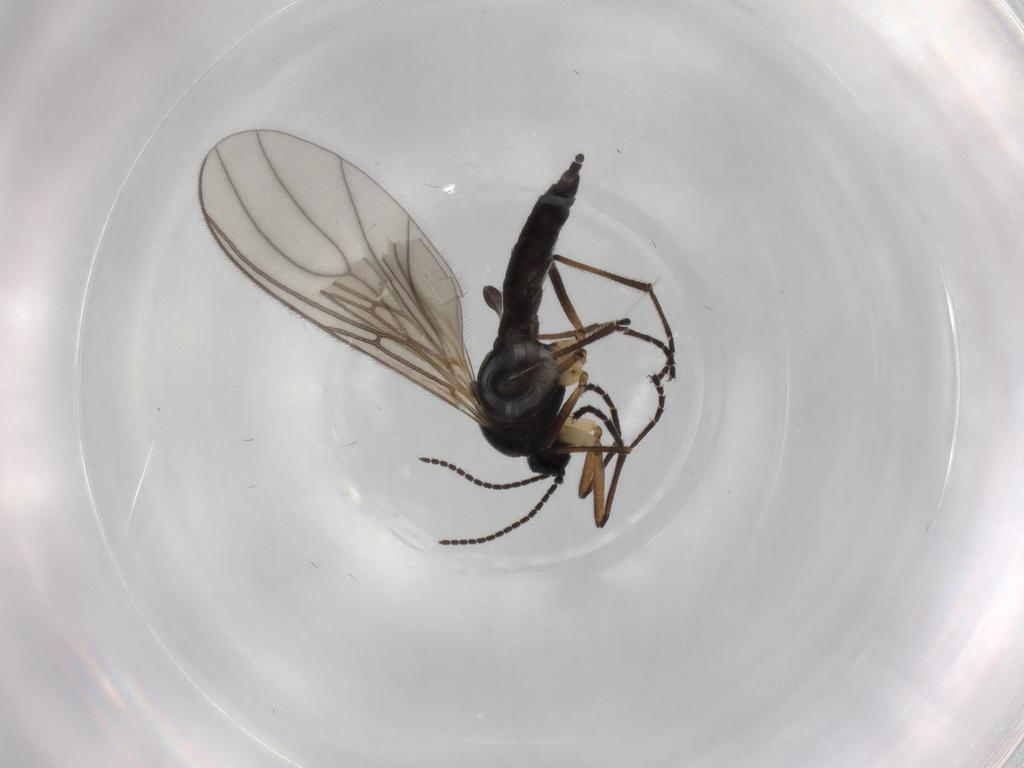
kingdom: Animalia
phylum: Arthropoda
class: Insecta
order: Diptera
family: Sciaridae
